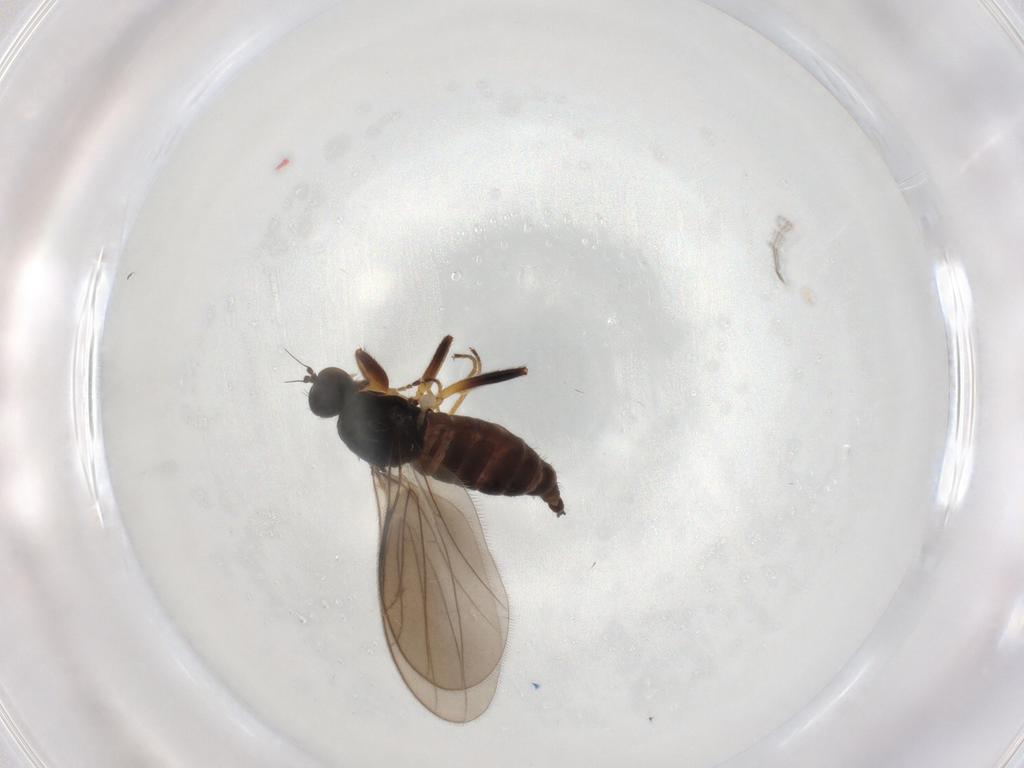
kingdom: Animalia
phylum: Arthropoda
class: Insecta
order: Diptera
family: Hybotidae
